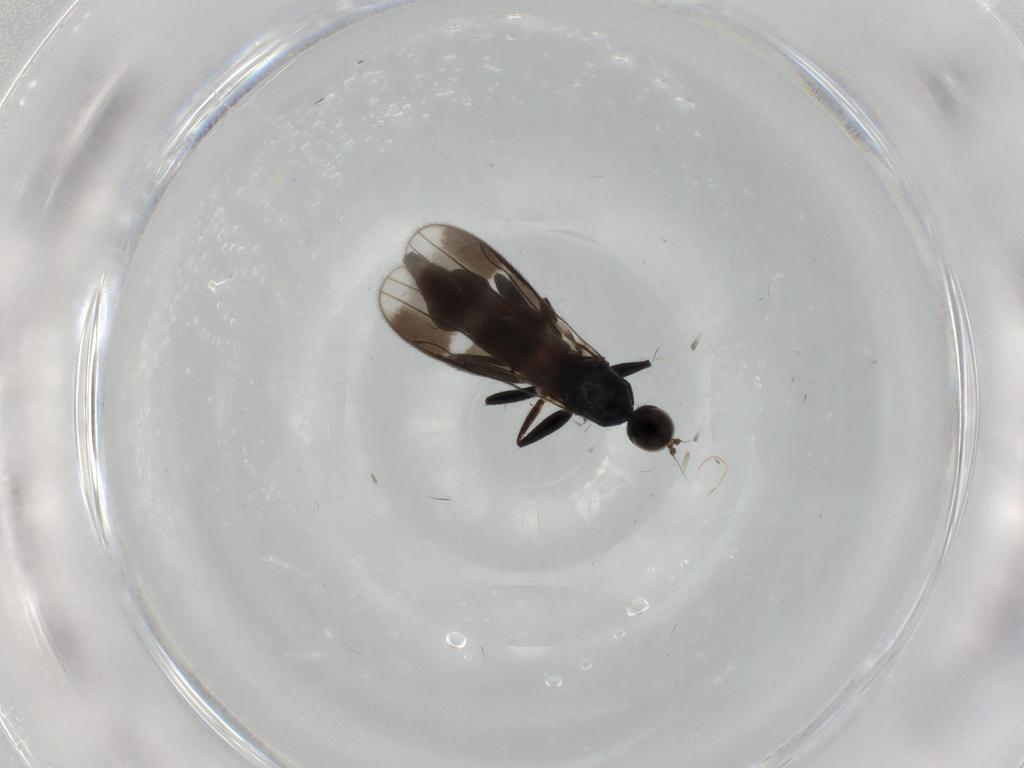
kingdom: Animalia
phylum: Arthropoda
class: Insecta
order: Diptera
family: Hybotidae
